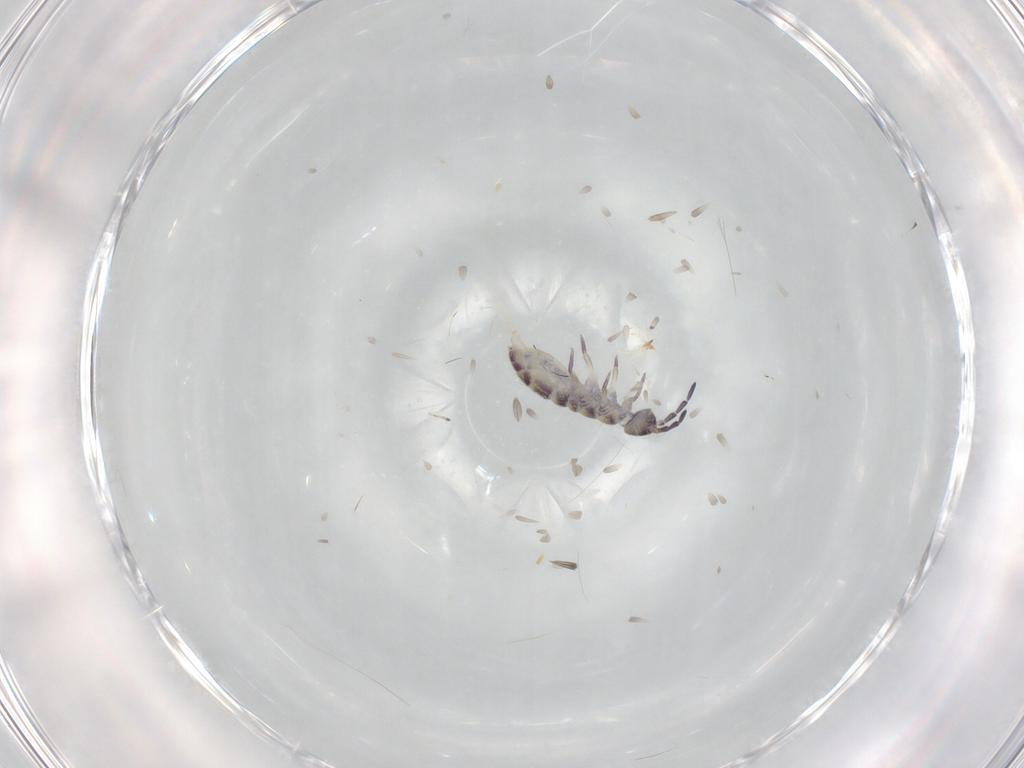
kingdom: Animalia
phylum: Arthropoda
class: Collembola
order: Entomobryomorpha
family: Isotomidae
